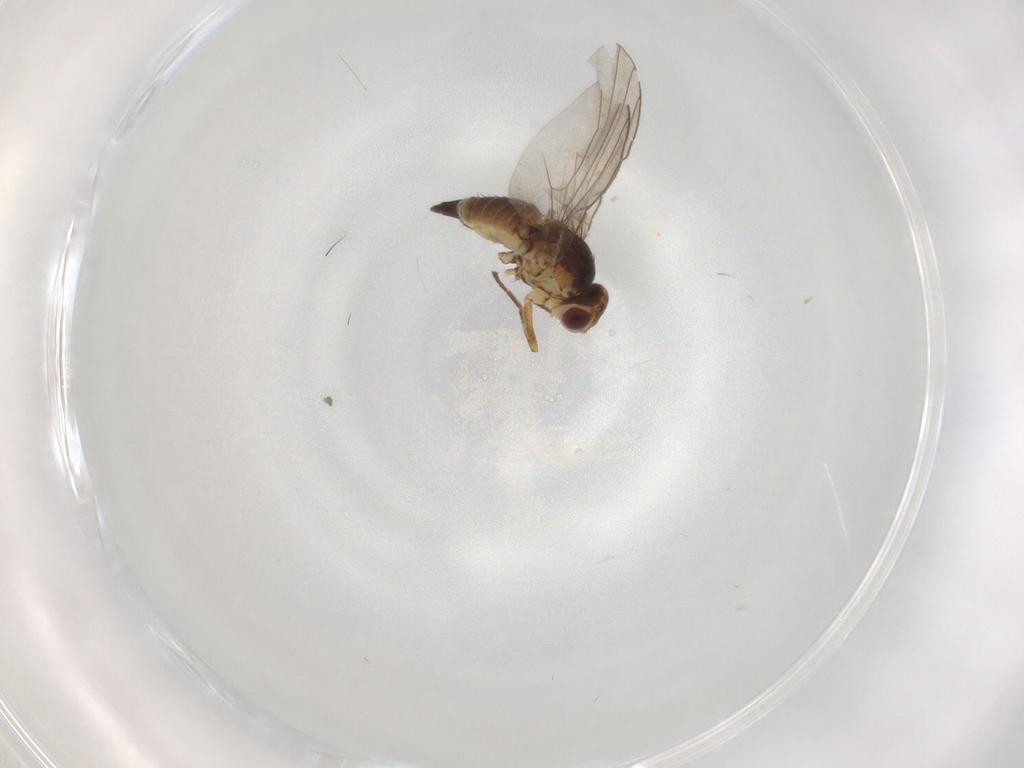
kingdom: Animalia
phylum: Arthropoda
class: Insecta
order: Diptera
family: Agromyzidae
